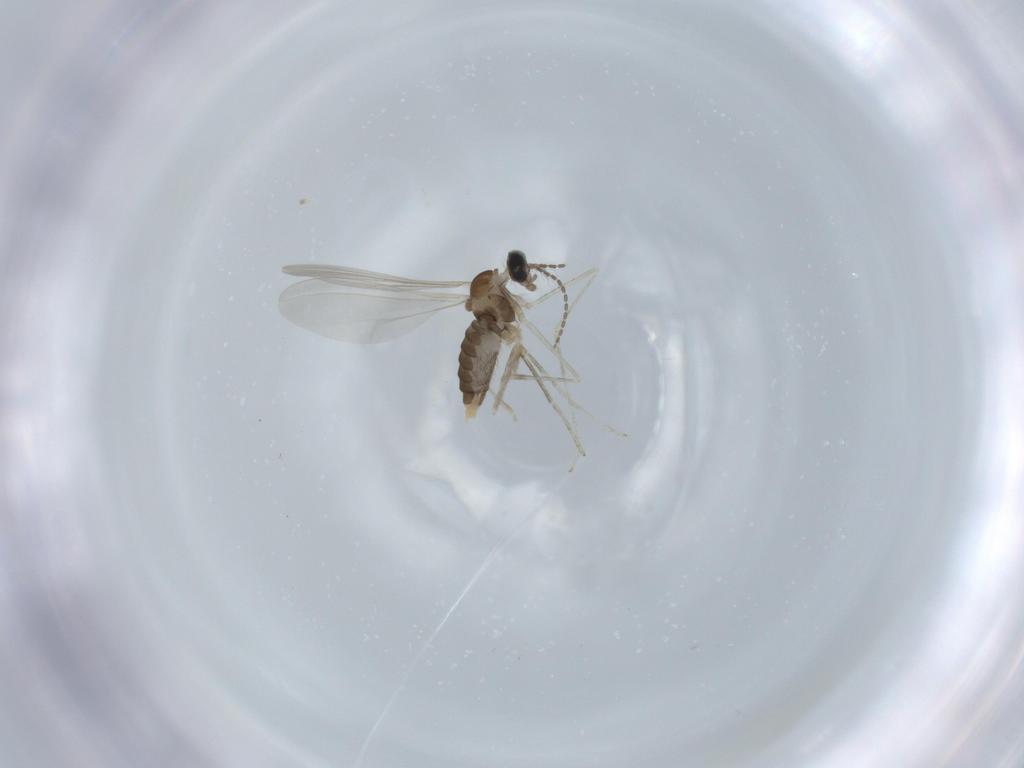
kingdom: Animalia
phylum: Arthropoda
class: Insecta
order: Diptera
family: Cecidomyiidae
